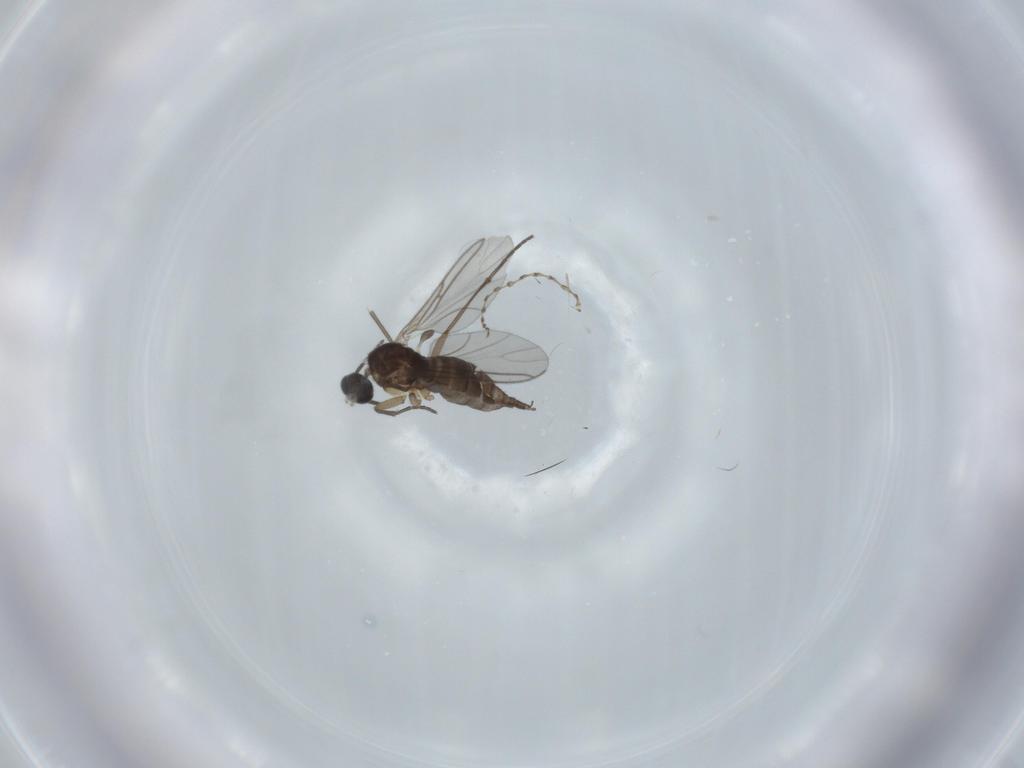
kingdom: Animalia
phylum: Arthropoda
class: Insecta
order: Diptera
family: Sciaridae
